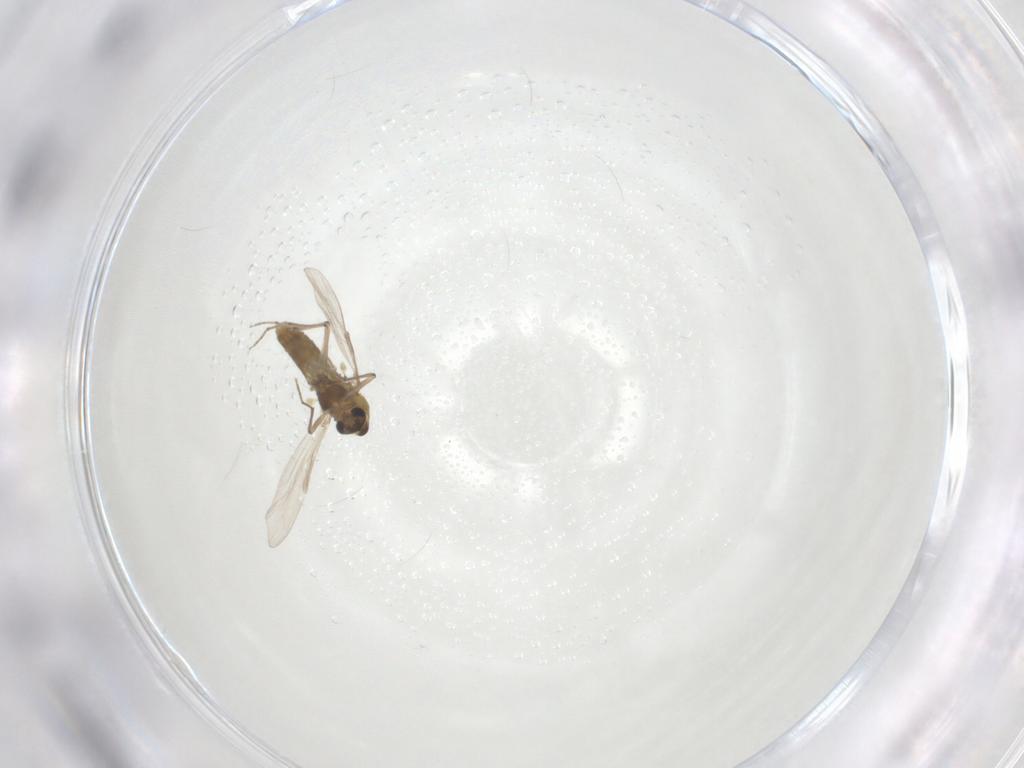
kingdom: Animalia
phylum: Arthropoda
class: Insecta
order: Diptera
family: Chironomidae
